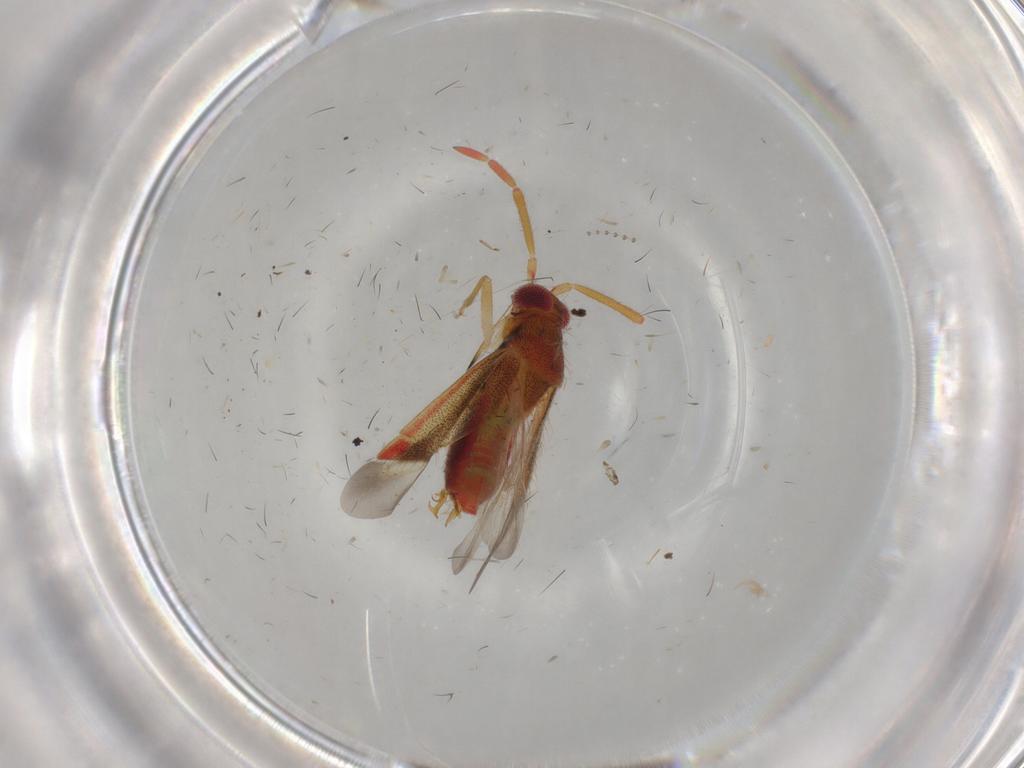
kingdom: Animalia
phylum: Arthropoda
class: Insecta
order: Hemiptera
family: Miridae
